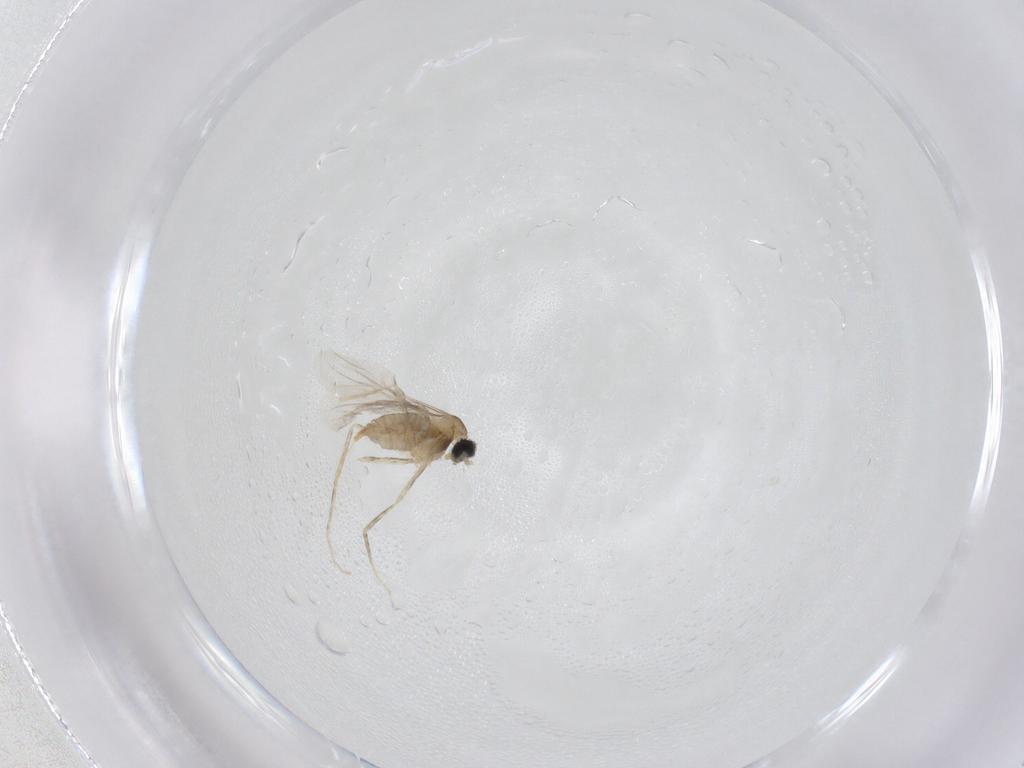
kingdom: Animalia
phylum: Arthropoda
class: Insecta
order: Diptera
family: Cecidomyiidae
